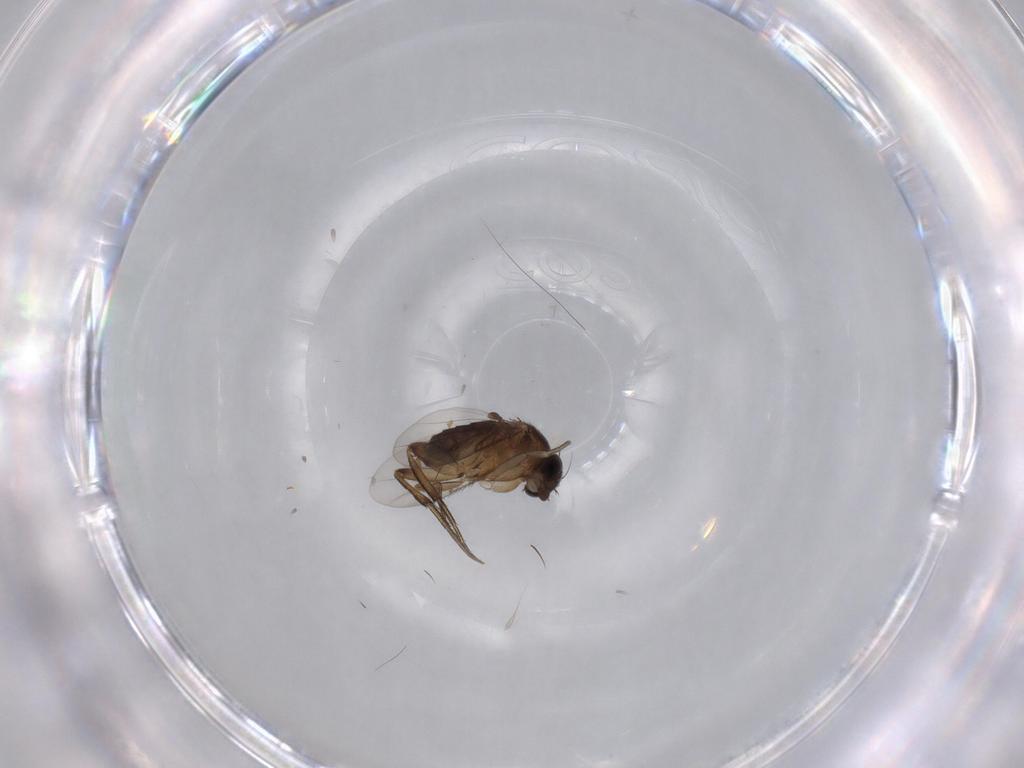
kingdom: Animalia
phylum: Arthropoda
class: Insecta
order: Diptera
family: Phoridae
